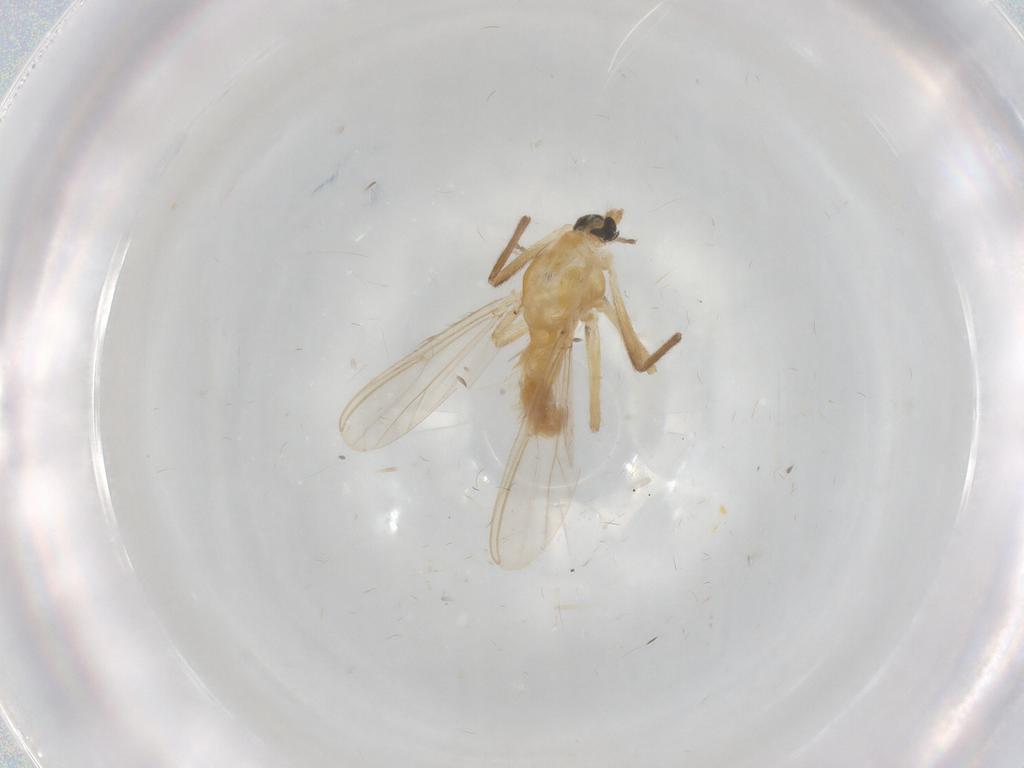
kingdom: Animalia
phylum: Arthropoda
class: Insecta
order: Diptera
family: Chironomidae
